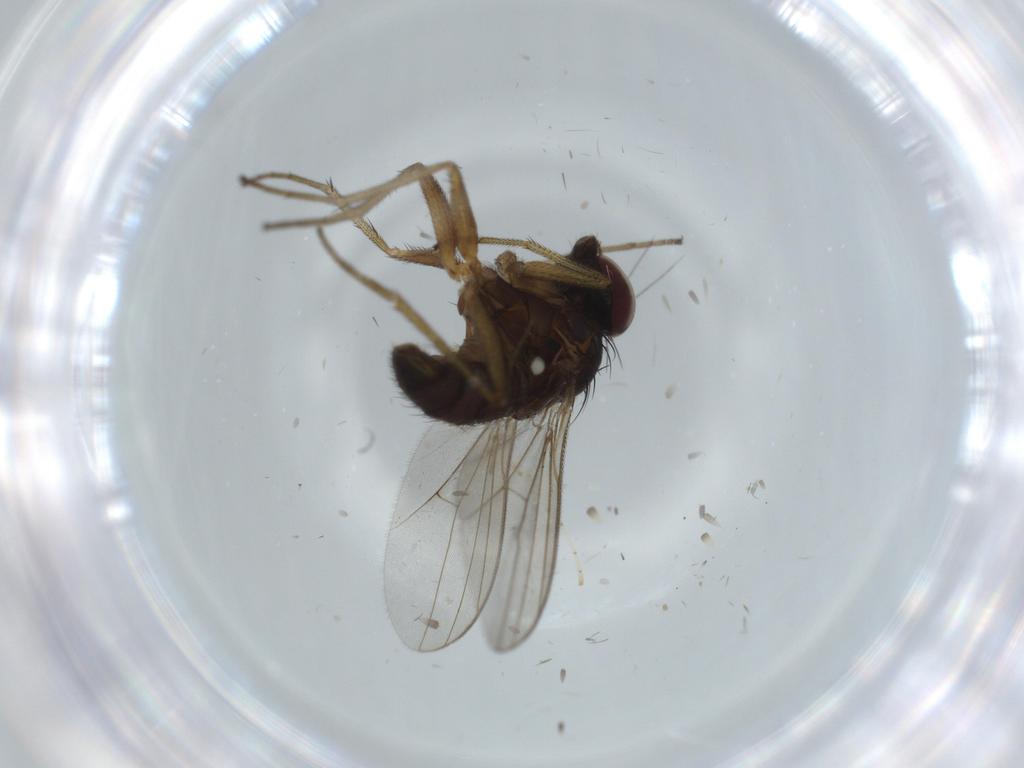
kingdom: Animalia
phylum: Arthropoda
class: Insecta
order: Diptera
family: Dolichopodidae
